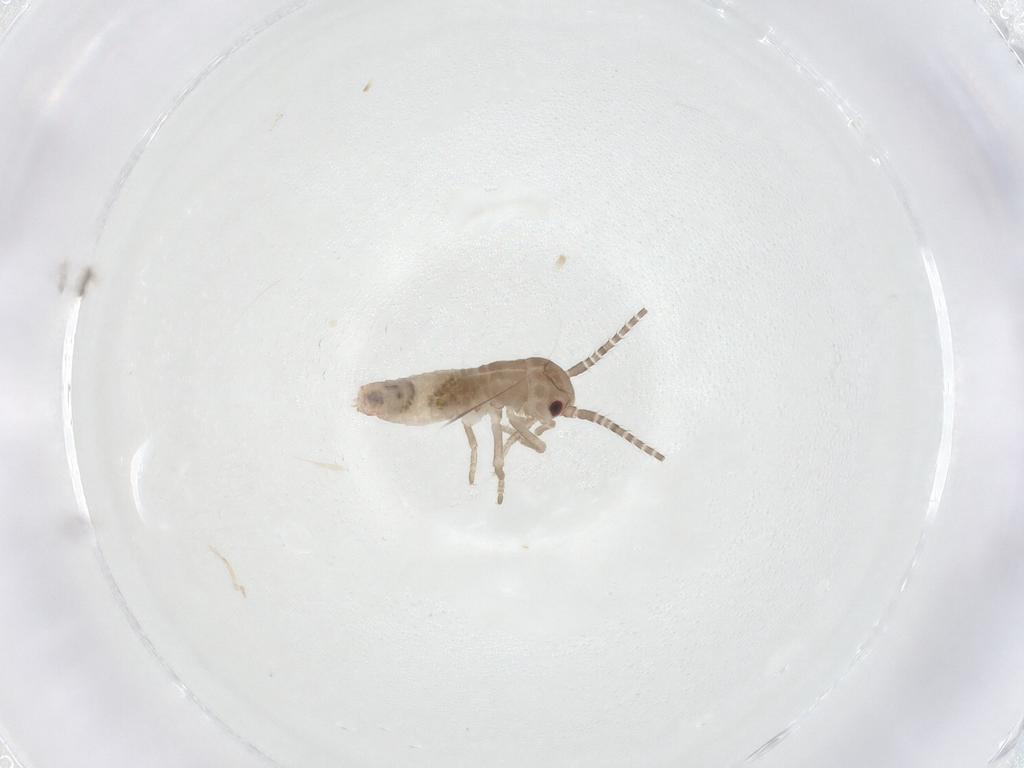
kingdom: Animalia
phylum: Arthropoda
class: Insecta
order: Orthoptera
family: Mogoplistidae
